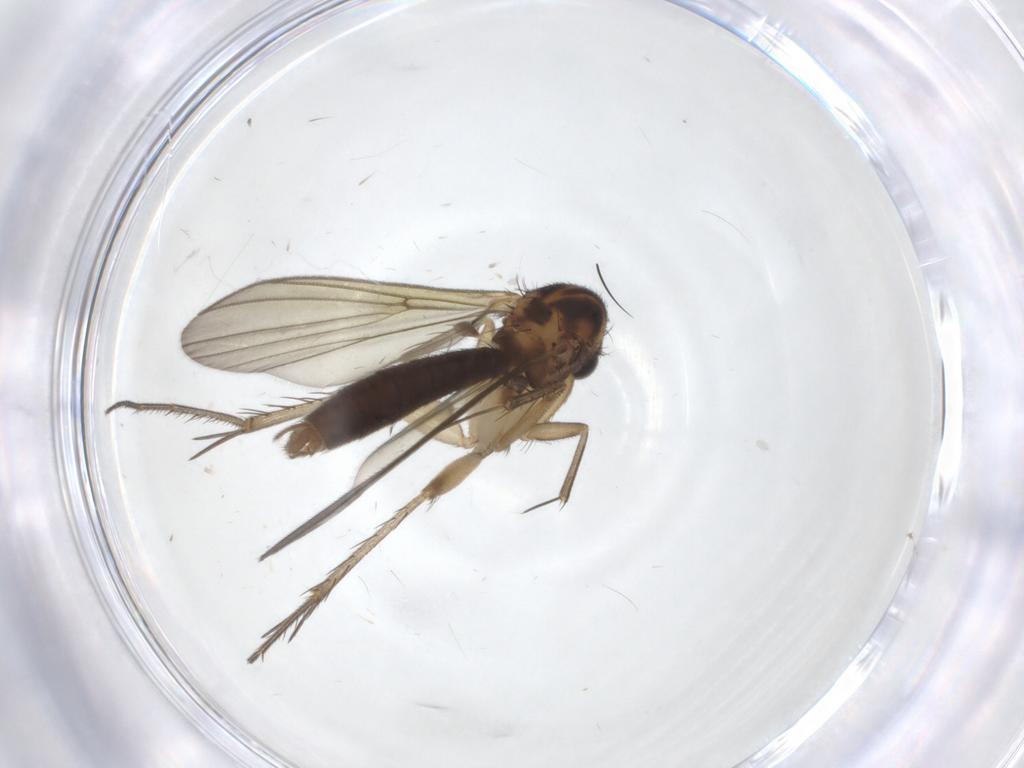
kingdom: Animalia
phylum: Arthropoda
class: Insecta
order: Diptera
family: Mycetophilidae
